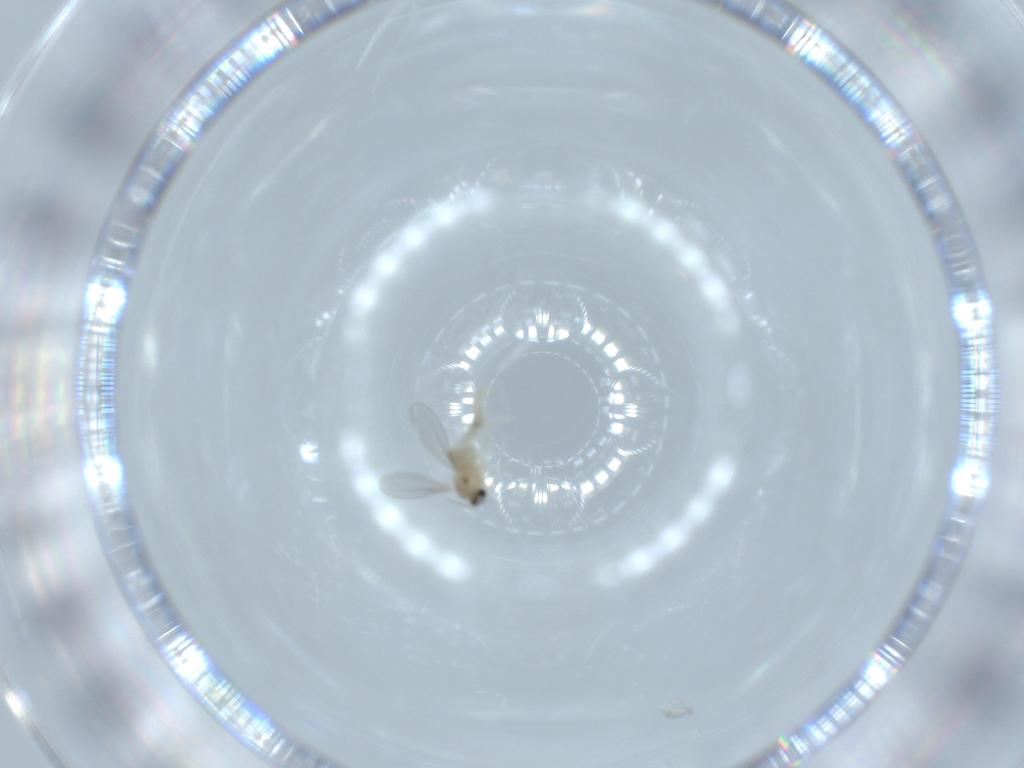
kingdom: Animalia
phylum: Arthropoda
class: Insecta
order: Diptera
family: Cecidomyiidae
